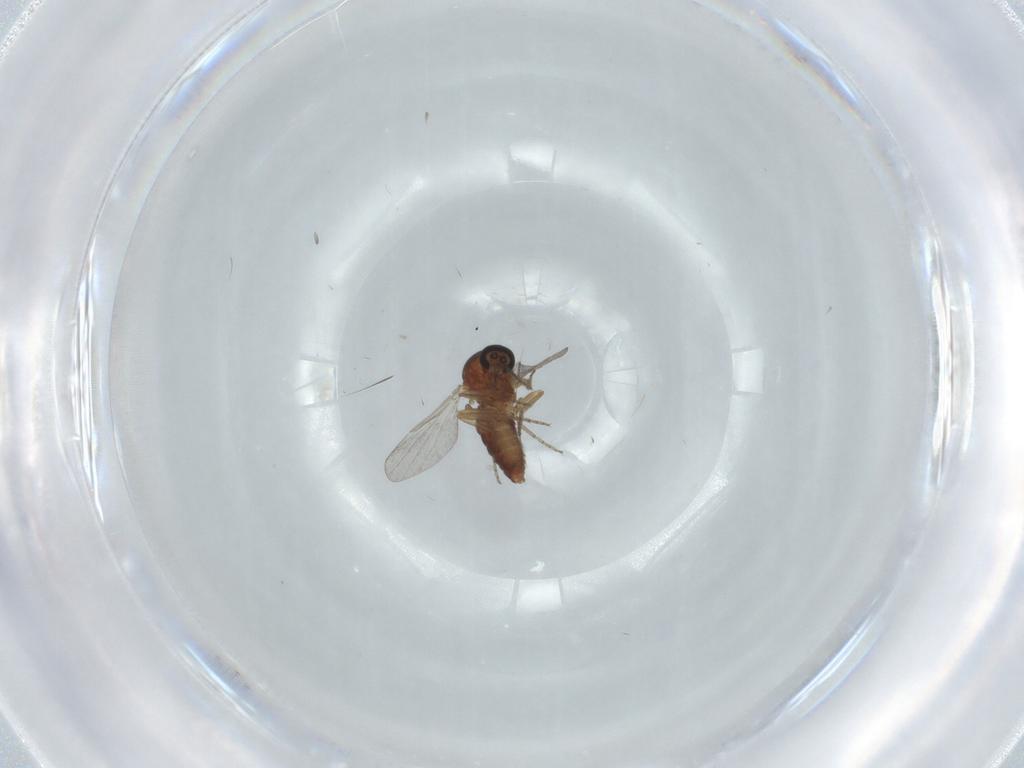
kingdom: Animalia
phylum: Arthropoda
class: Insecta
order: Diptera
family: Ceratopogonidae
